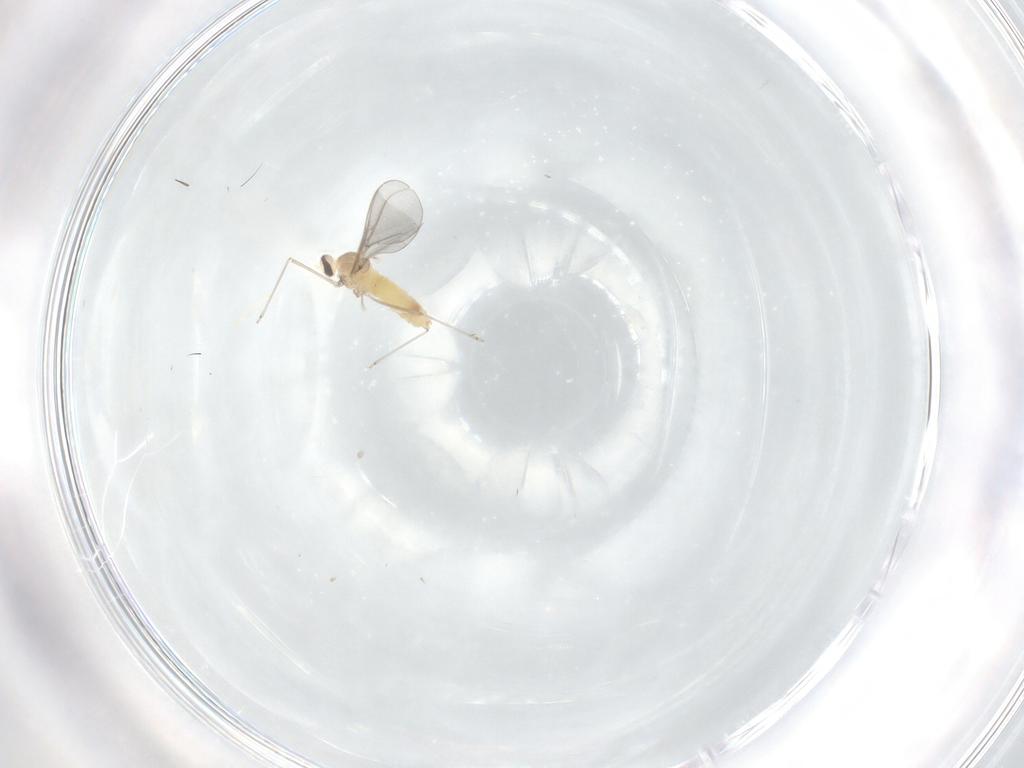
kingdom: Animalia
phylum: Arthropoda
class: Insecta
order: Diptera
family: Cecidomyiidae
